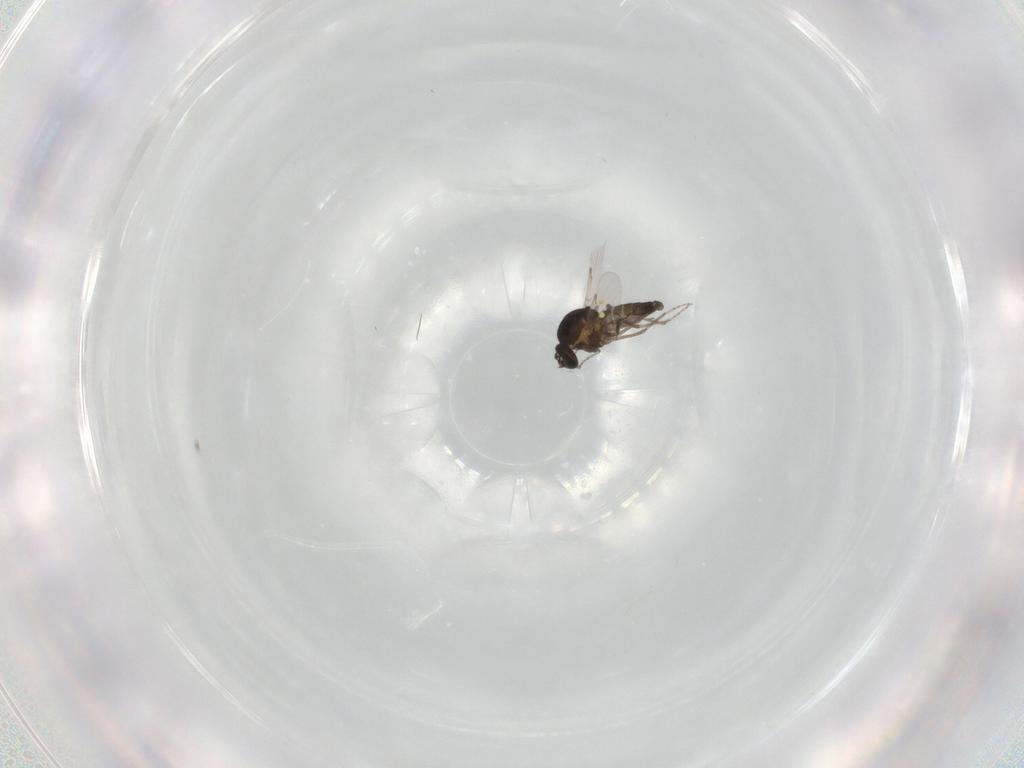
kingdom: Animalia
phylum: Arthropoda
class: Insecta
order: Diptera
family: Ceratopogonidae
